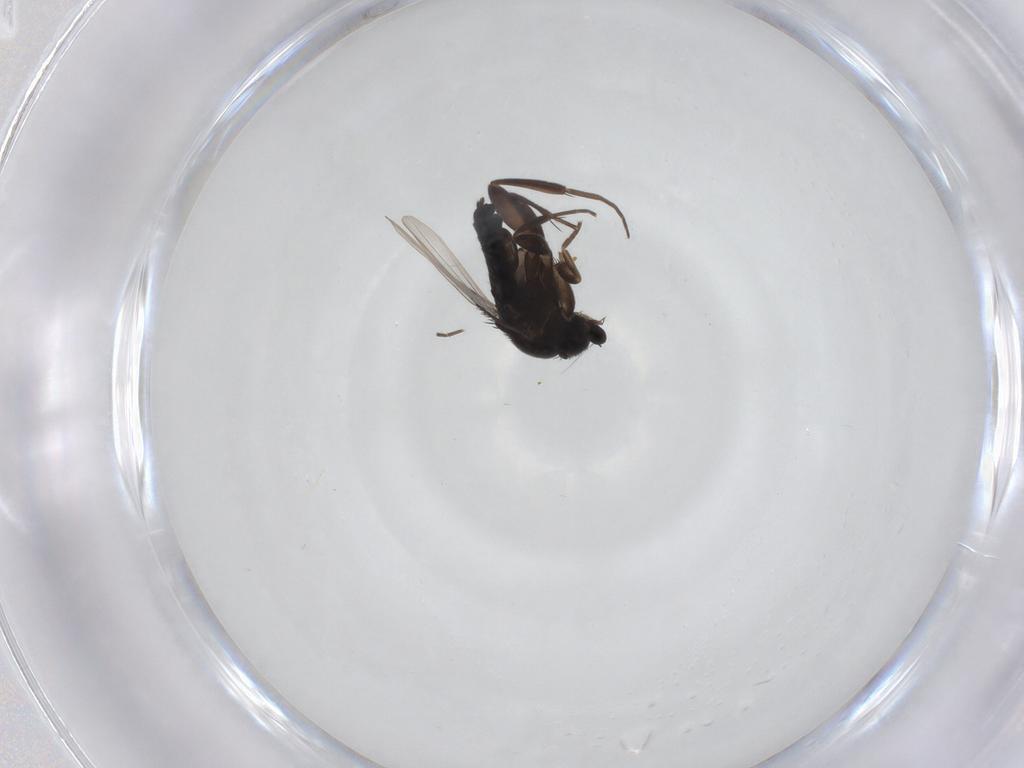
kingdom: Animalia
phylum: Arthropoda
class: Insecta
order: Diptera
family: Phoridae
